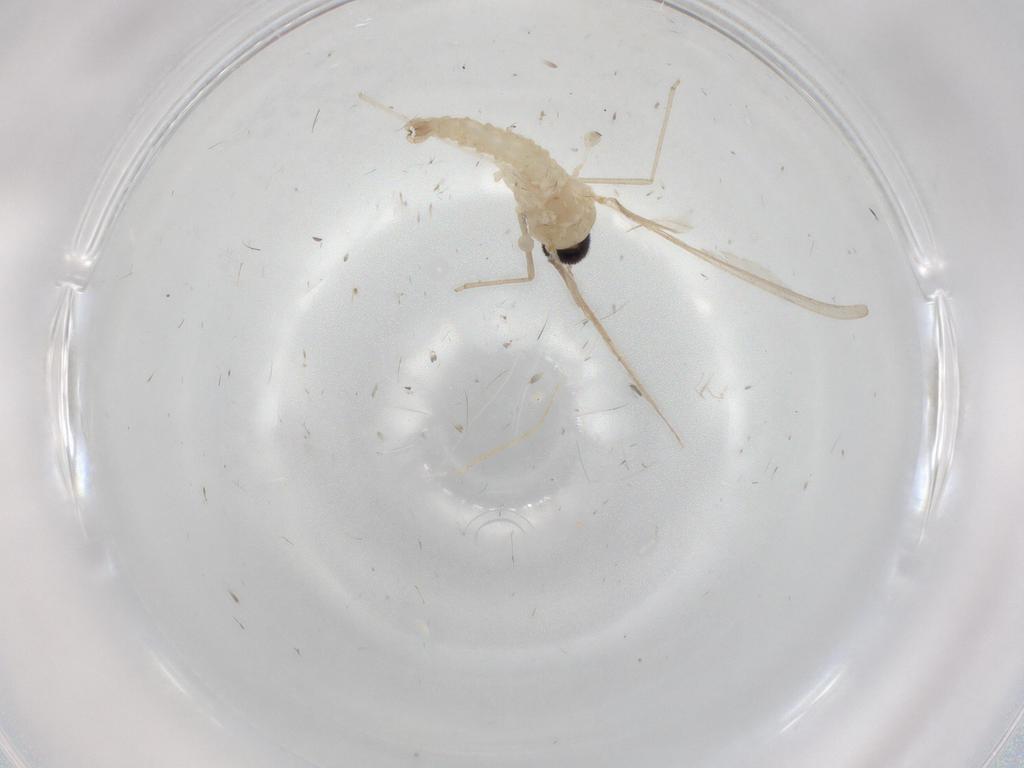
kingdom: Animalia
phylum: Arthropoda
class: Insecta
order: Diptera
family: Cecidomyiidae
